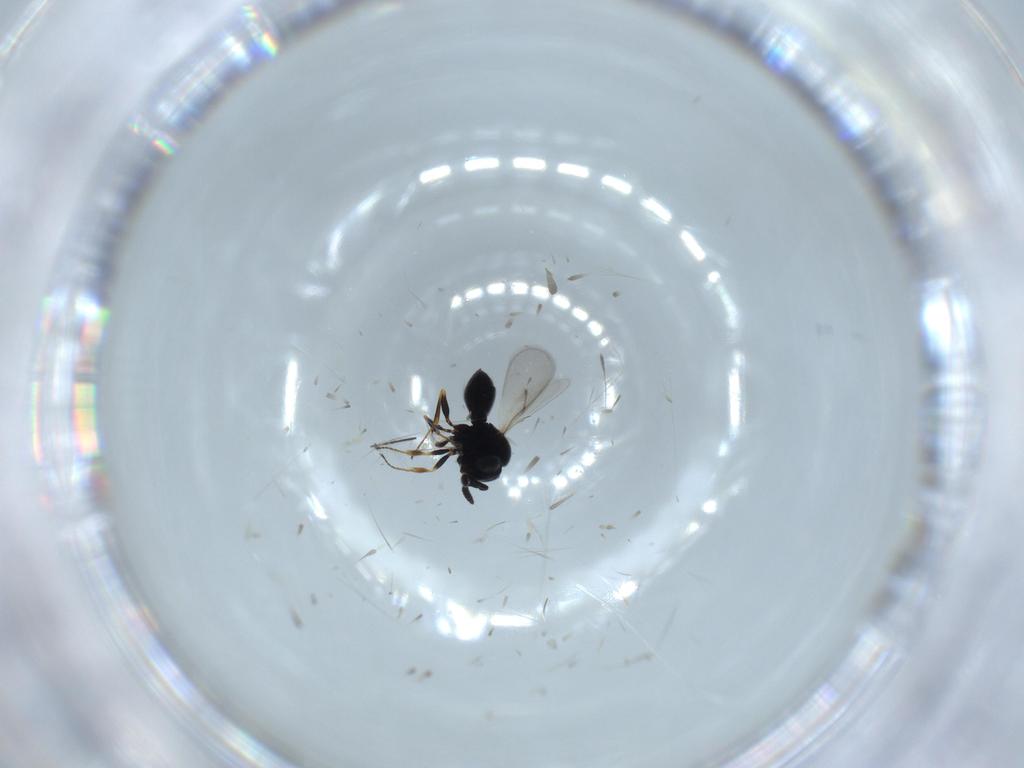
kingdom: Animalia
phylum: Arthropoda
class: Insecta
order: Hymenoptera
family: Scelionidae
